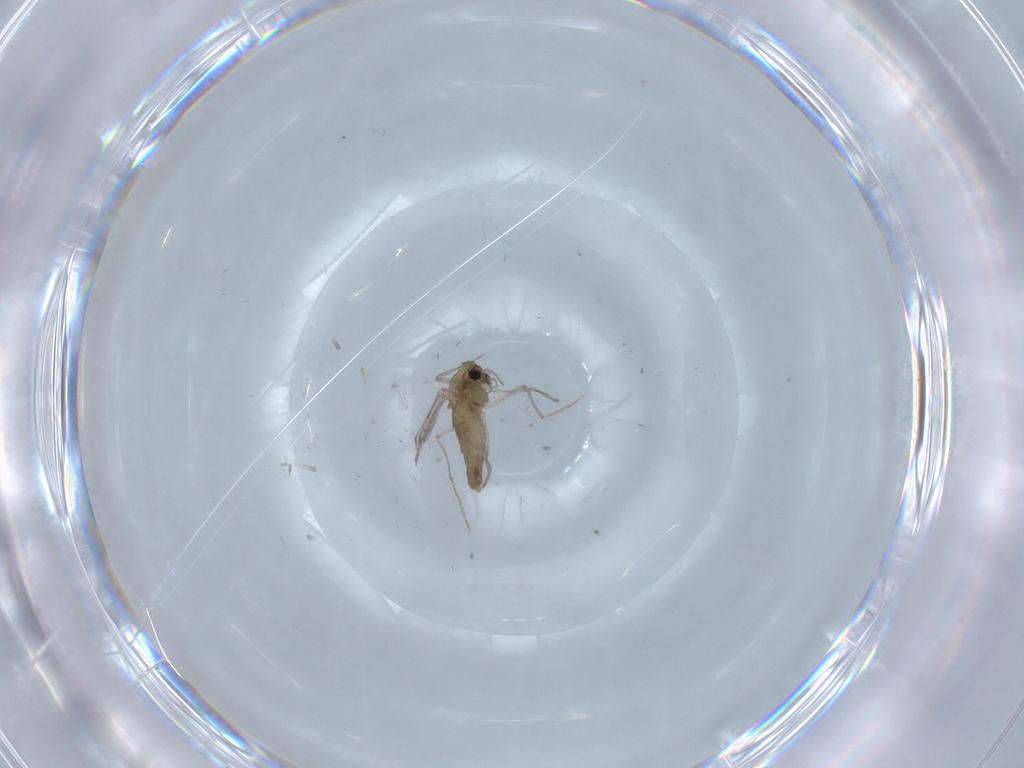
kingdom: Animalia
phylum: Arthropoda
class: Insecta
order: Diptera
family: Chironomidae
